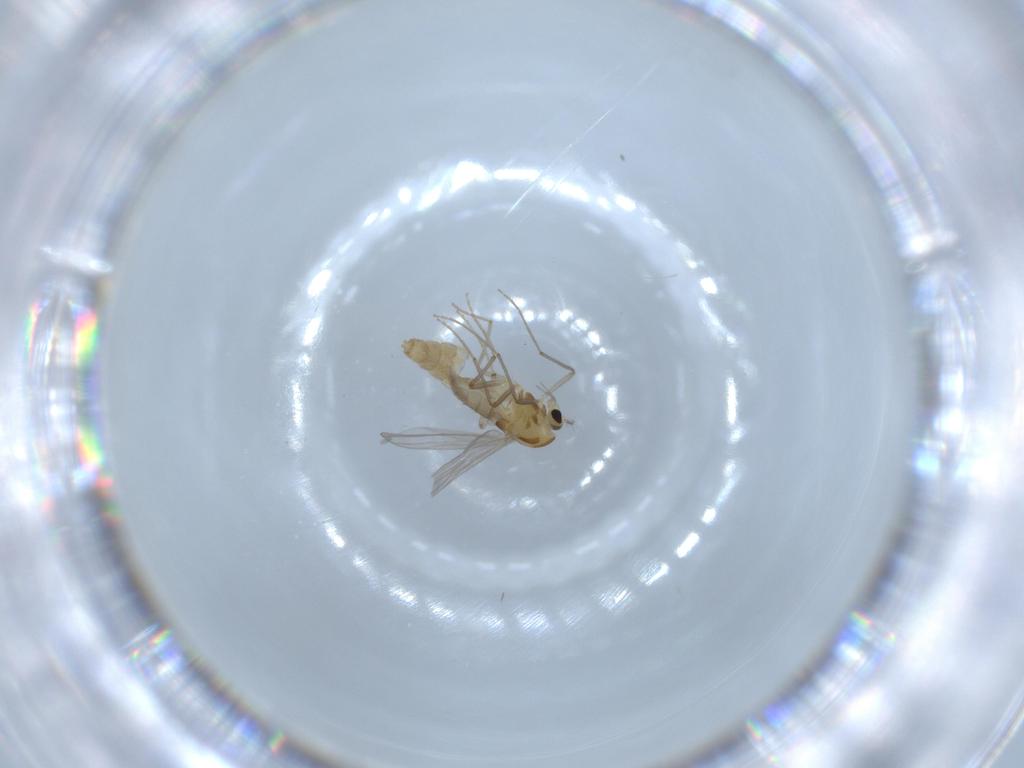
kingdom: Animalia
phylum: Arthropoda
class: Insecta
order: Diptera
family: Chironomidae
